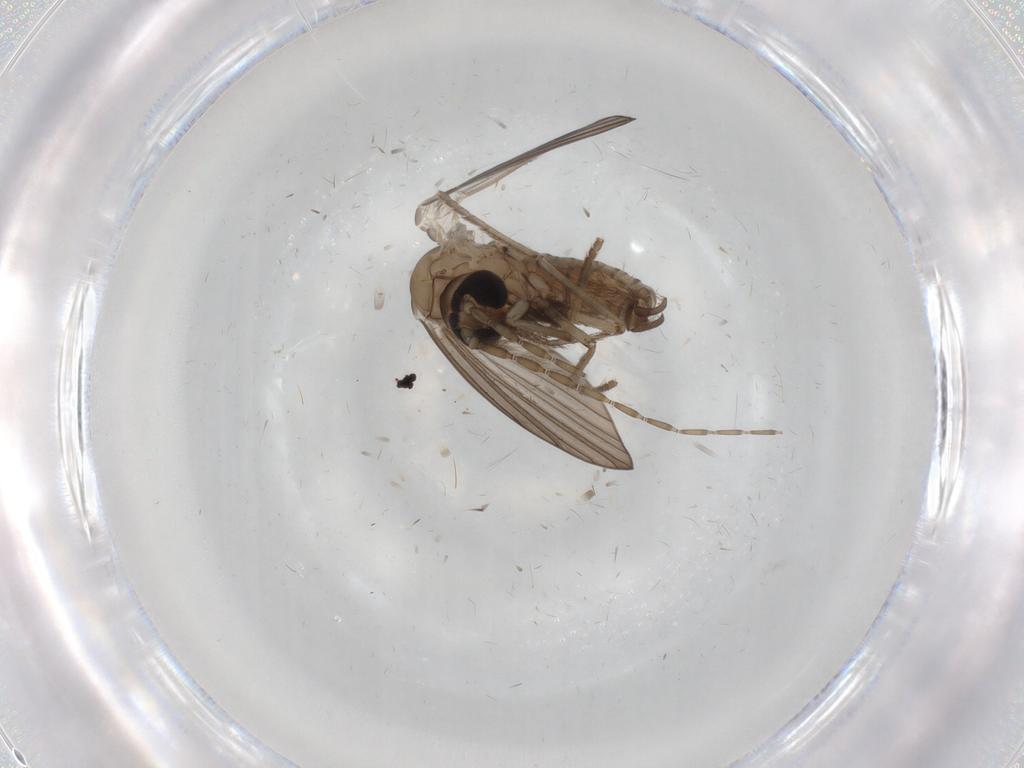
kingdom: Animalia
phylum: Arthropoda
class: Insecta
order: Diptera
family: Psychodidae
